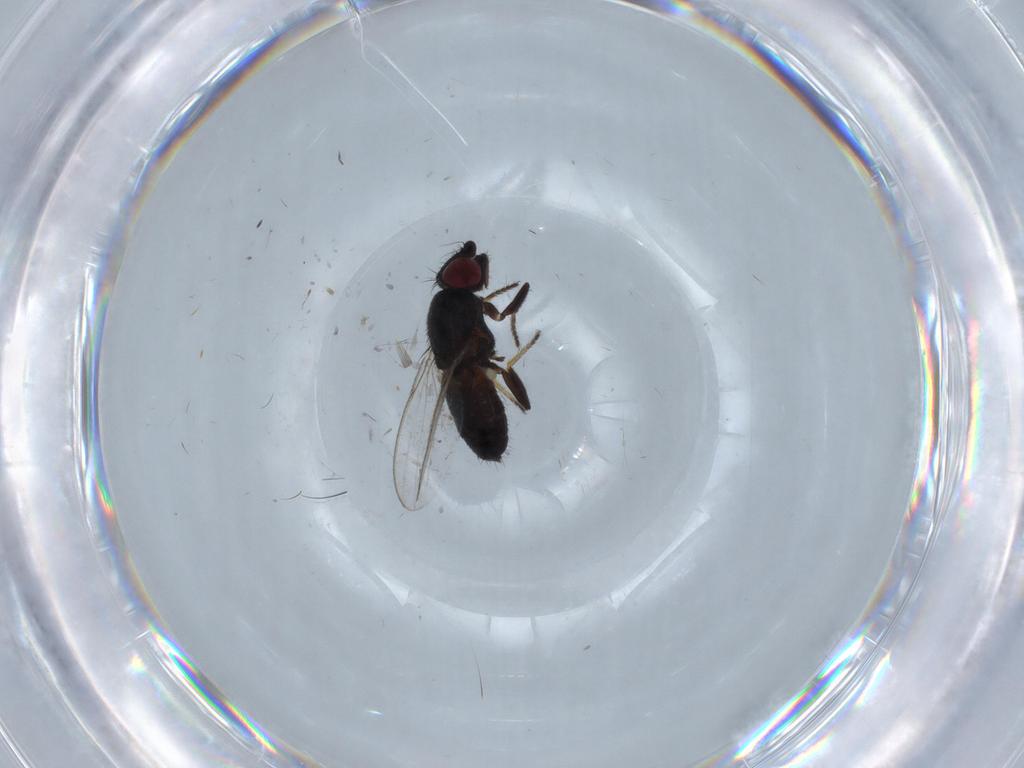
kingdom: Animalia
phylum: Arthropoda
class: Insecta
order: Diptera
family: Milichiidae
